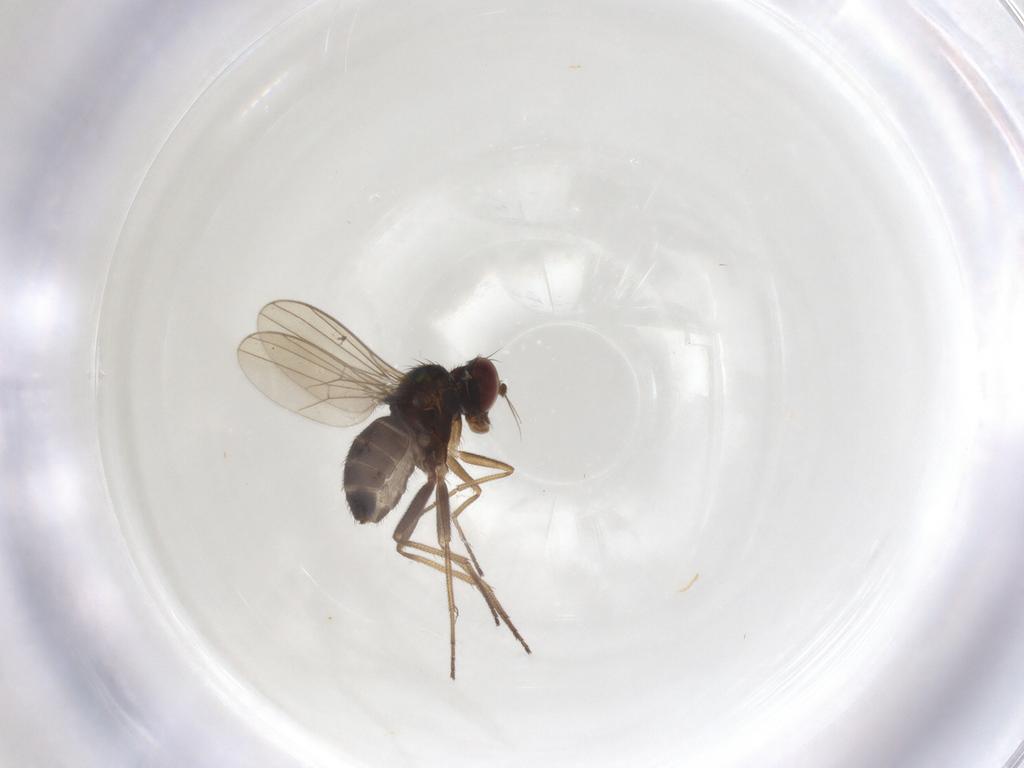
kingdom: Animalia
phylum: Arthropoda
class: Insecta
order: Diptera
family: Dolichopodidae
